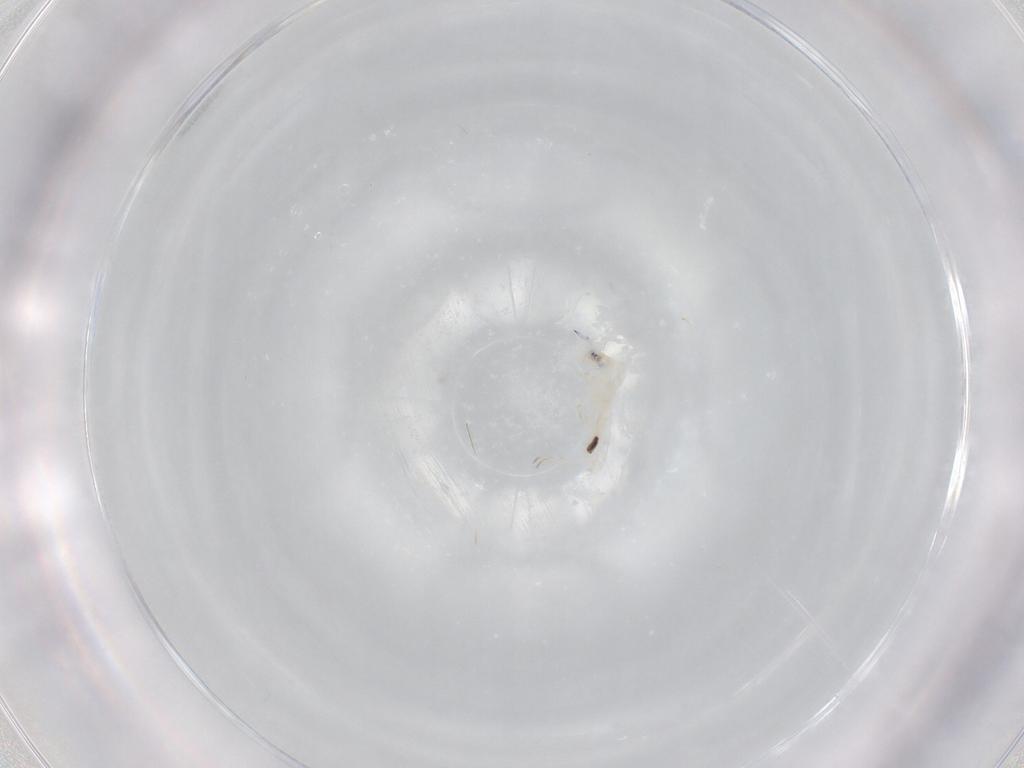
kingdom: Animalia
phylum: Arthropoda
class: Collembola
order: Entomobryomorpha
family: Entomobryidae
